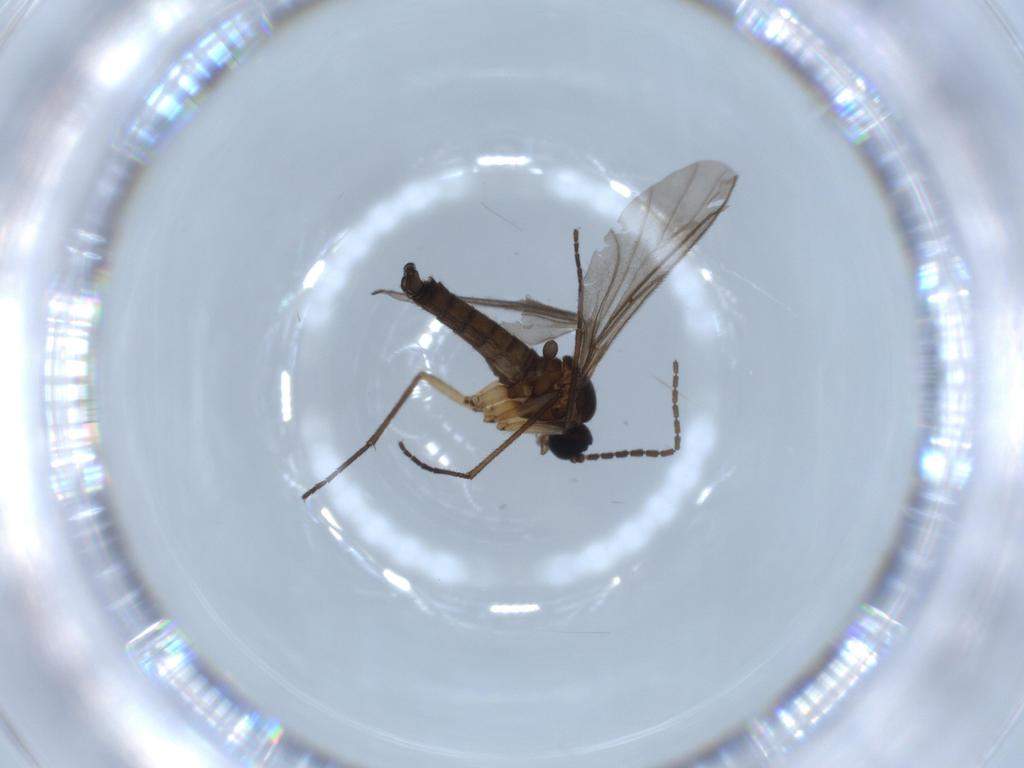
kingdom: Animalia
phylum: Arthropoda
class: Insecta
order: Diptera
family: Sciaridae
